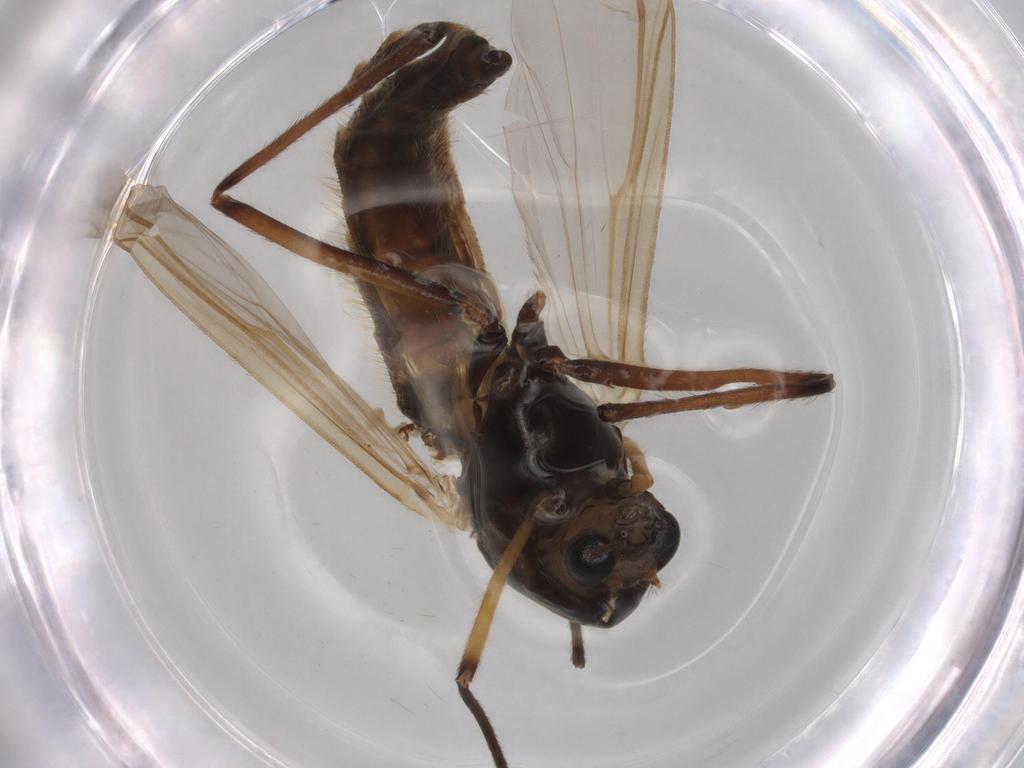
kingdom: Animalia
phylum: Arthropoda
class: Insecta
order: Diptera
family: Chironomidae
